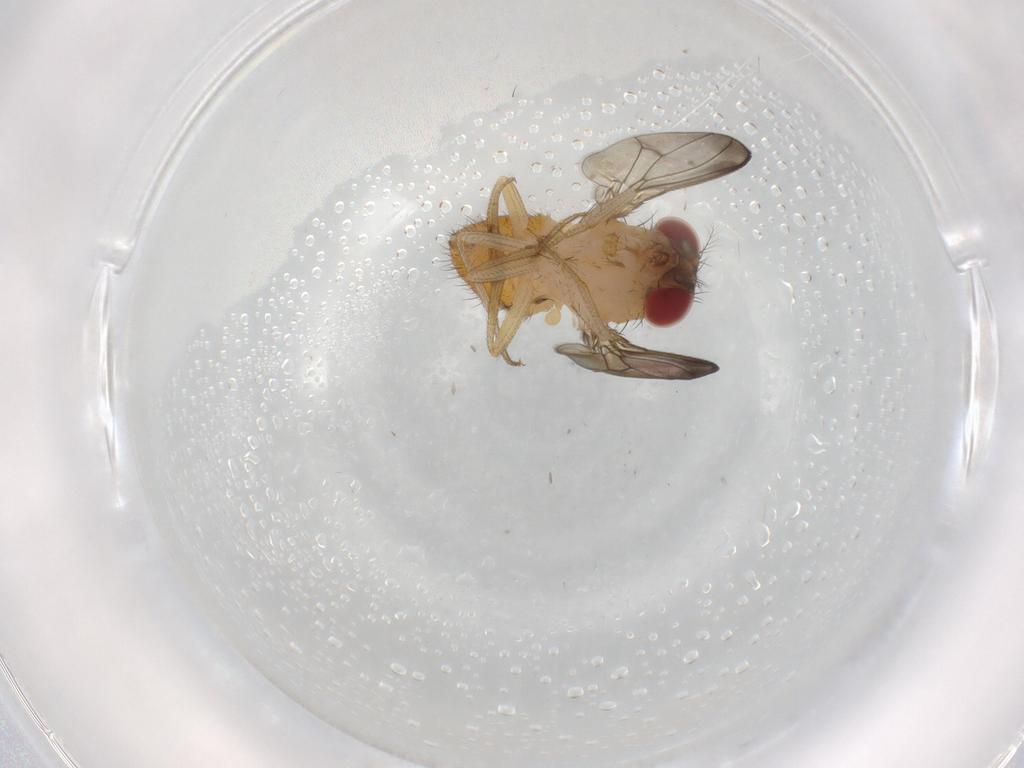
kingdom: Animalia
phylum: Arthropoda
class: Insecta
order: Diptera
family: Drosophilidae
